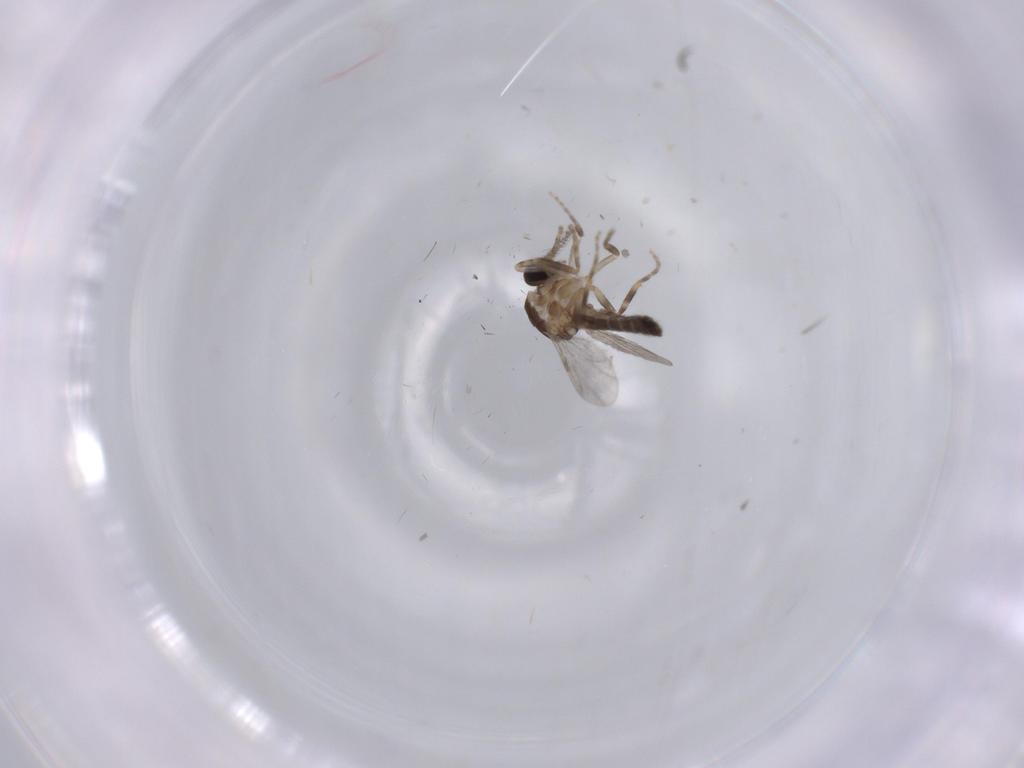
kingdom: Animalia
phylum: Arthropoda
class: Insecta
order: Diptera
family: Ceratopogonidae
